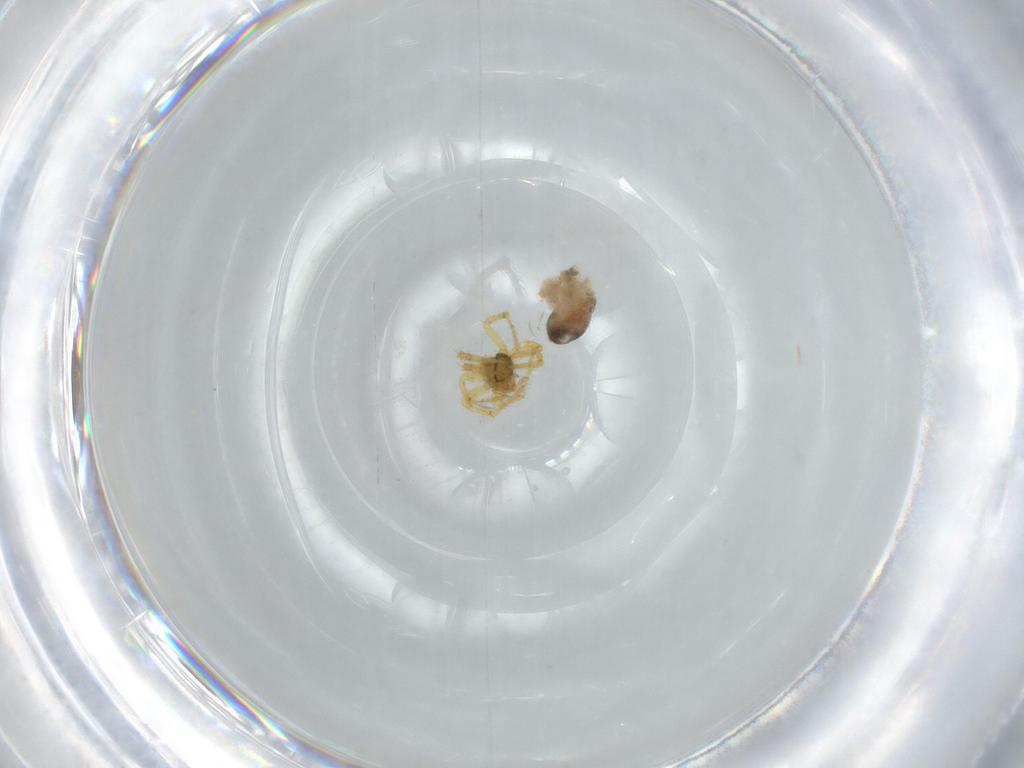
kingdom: Animalia
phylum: Arthropoda
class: Arachnida
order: Araneae
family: Theridiidae
